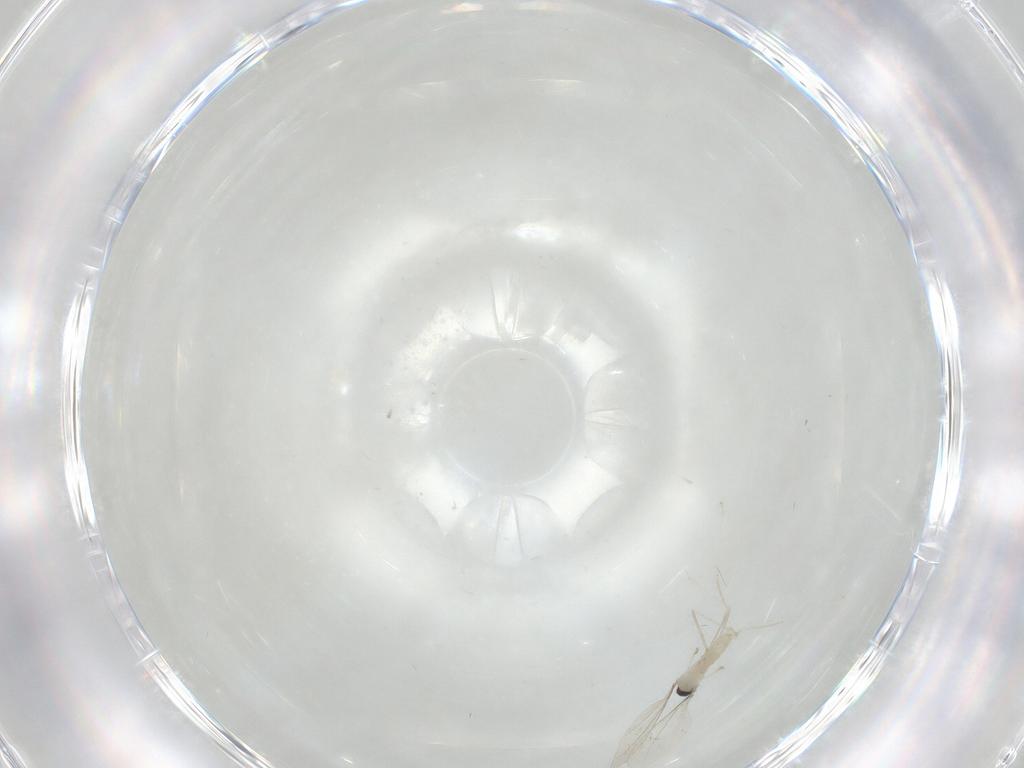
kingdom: Animalia
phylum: Arthropoda
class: Insecta
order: Diptera
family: Cecidomyiidae
